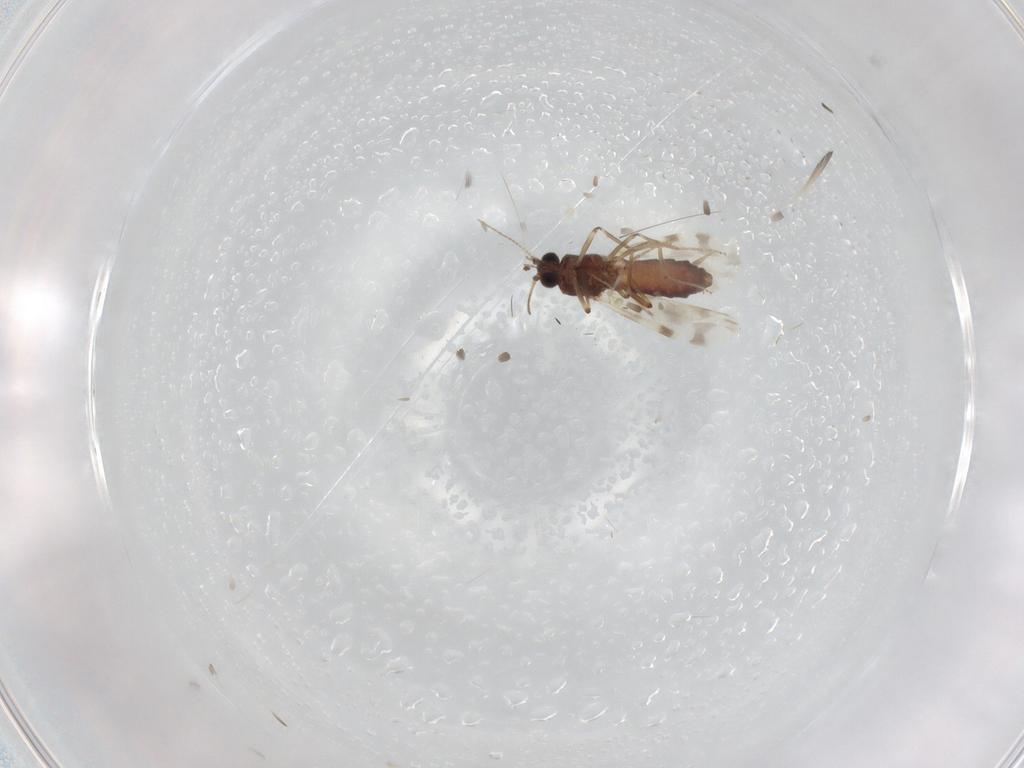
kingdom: Animalia
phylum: Arthropoda
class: Insecta
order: Diptera
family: Ceratopogonidae
